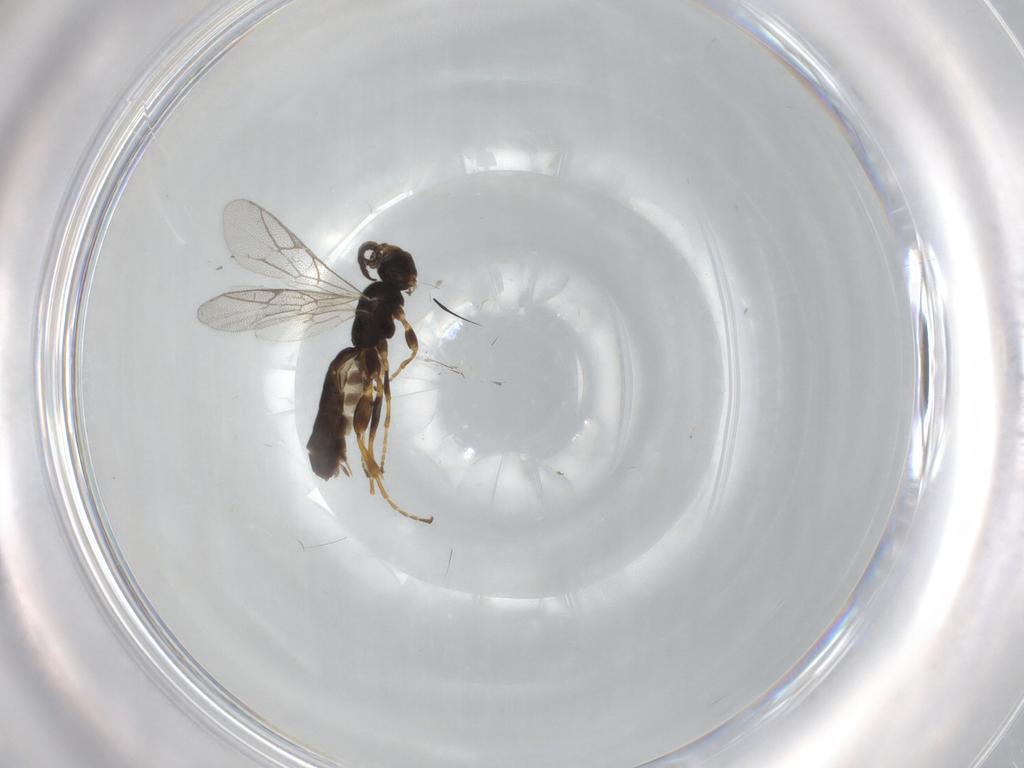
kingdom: Animalia
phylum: Arthropoda
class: Insecta
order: Hymenoptera
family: Ichneumonidae
